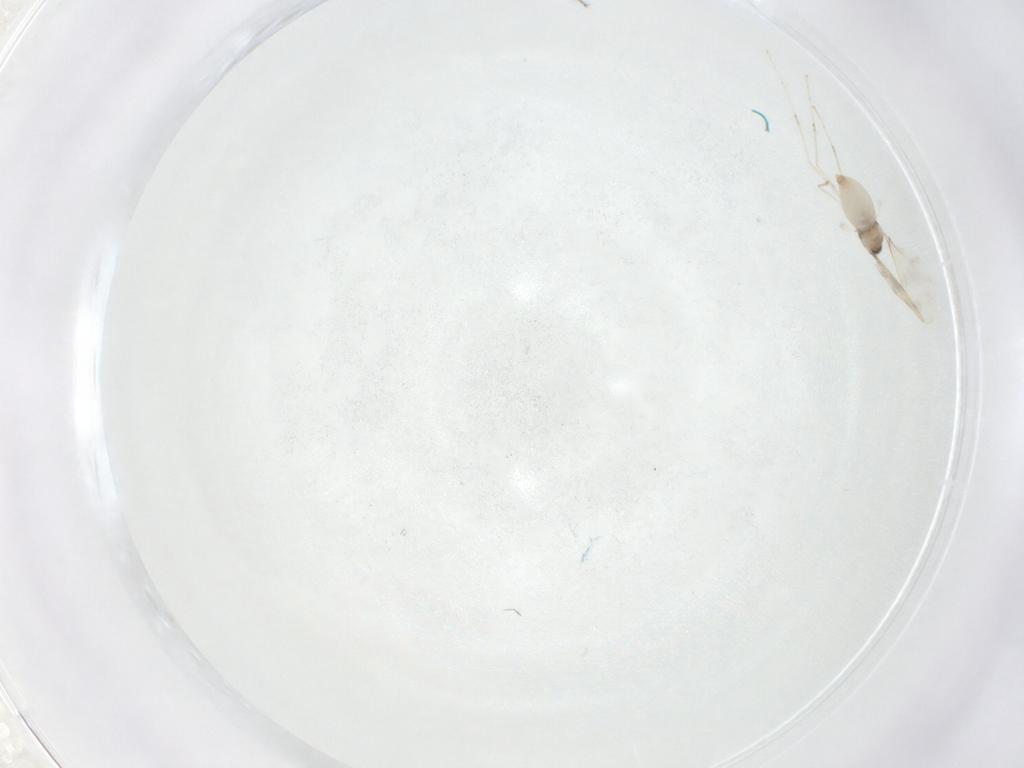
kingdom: Animalia
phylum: Arthropoda
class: Insecta
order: Diptera
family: Cecidomyiidae
